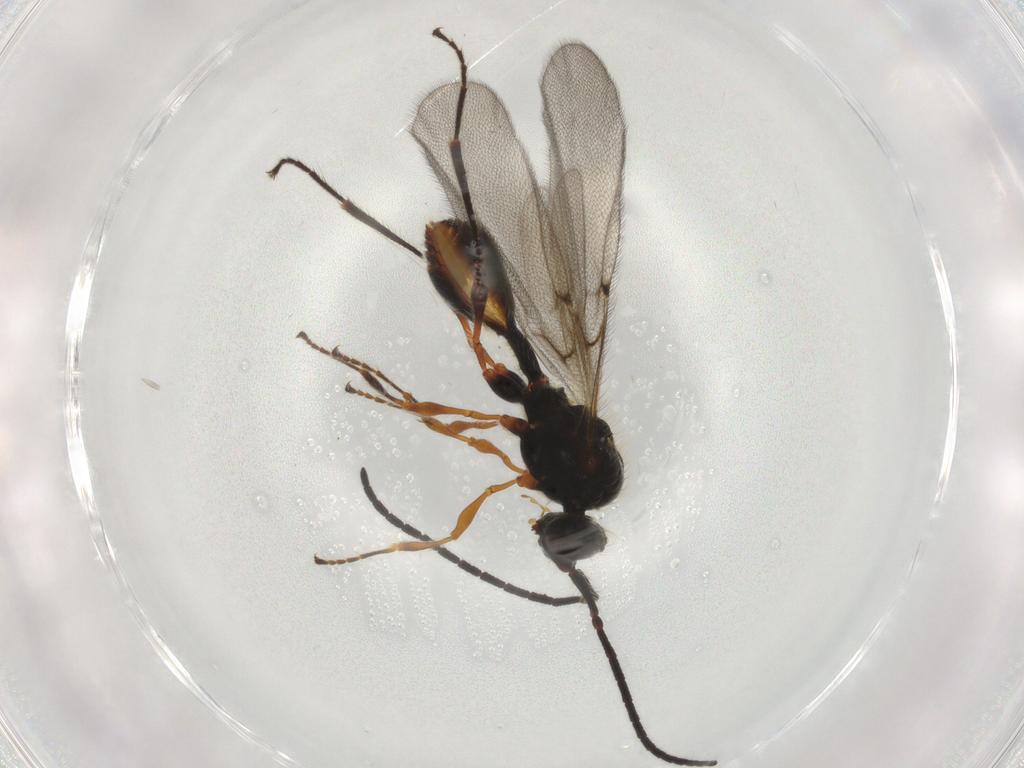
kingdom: Animalia
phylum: Arthropoda
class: Insecta
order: Hymenoptera
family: Diapriidae
